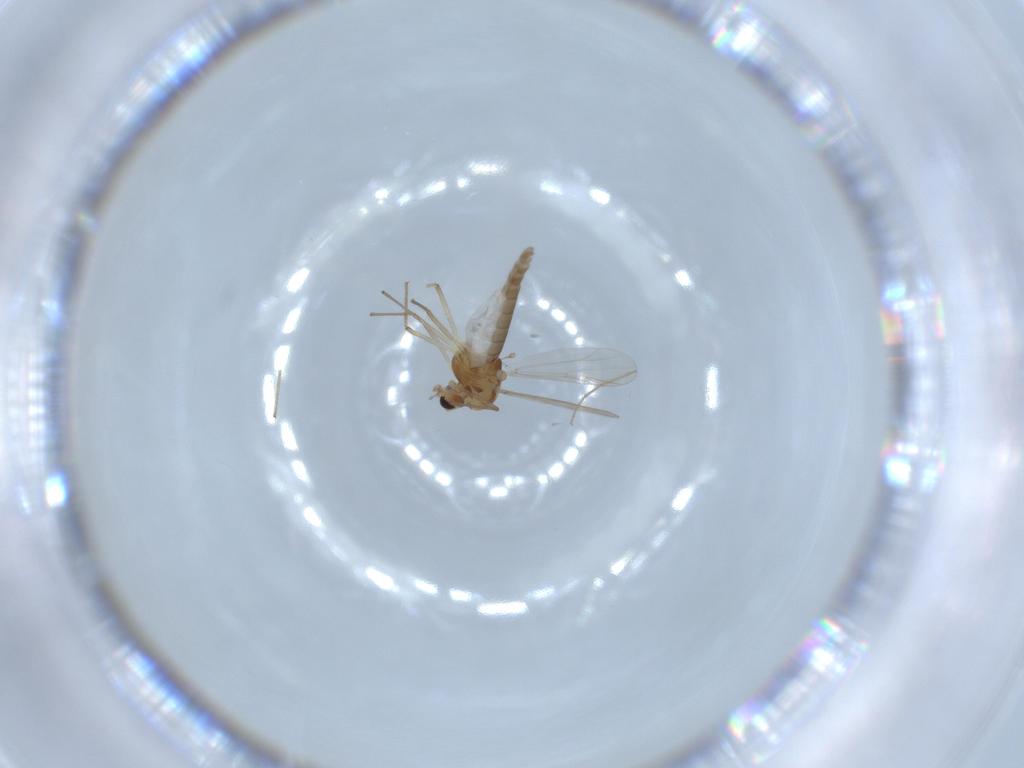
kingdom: Animalia
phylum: Arthropoda
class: Insecta
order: Diptera
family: Chironomidae
